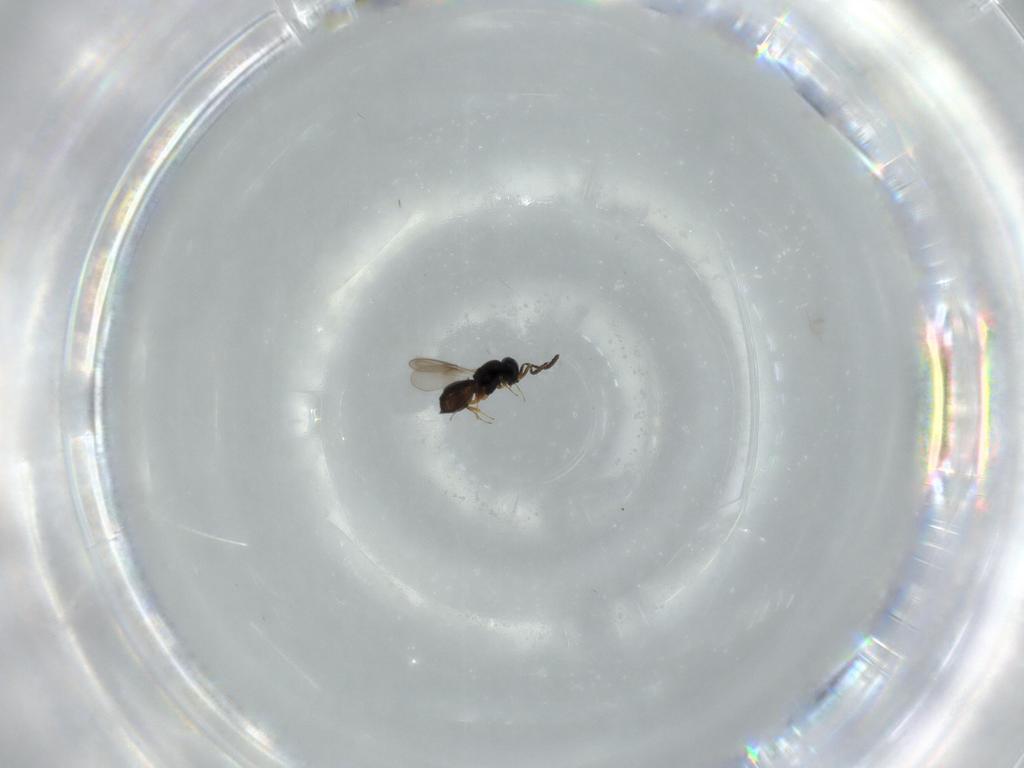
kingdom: Animalia
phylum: Arthropoda
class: Insecta
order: Hymenoptera
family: Scelionidae
